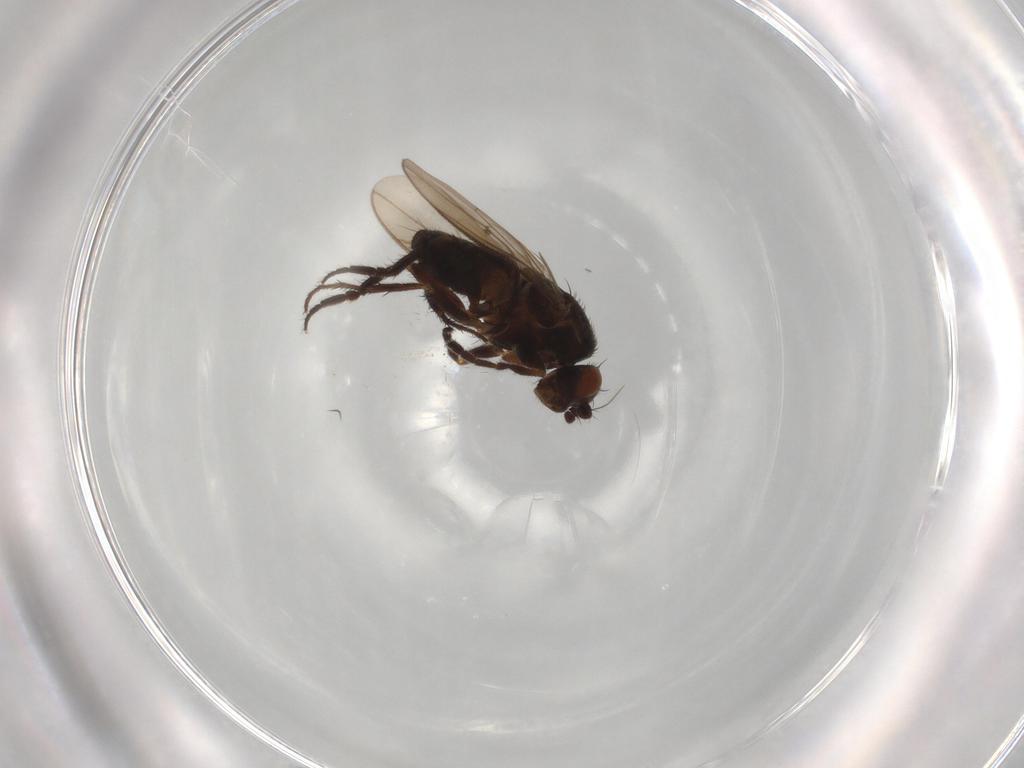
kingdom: Animalia
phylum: Arthropoda
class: Insecta
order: Diptera
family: Sphaeroceridae
